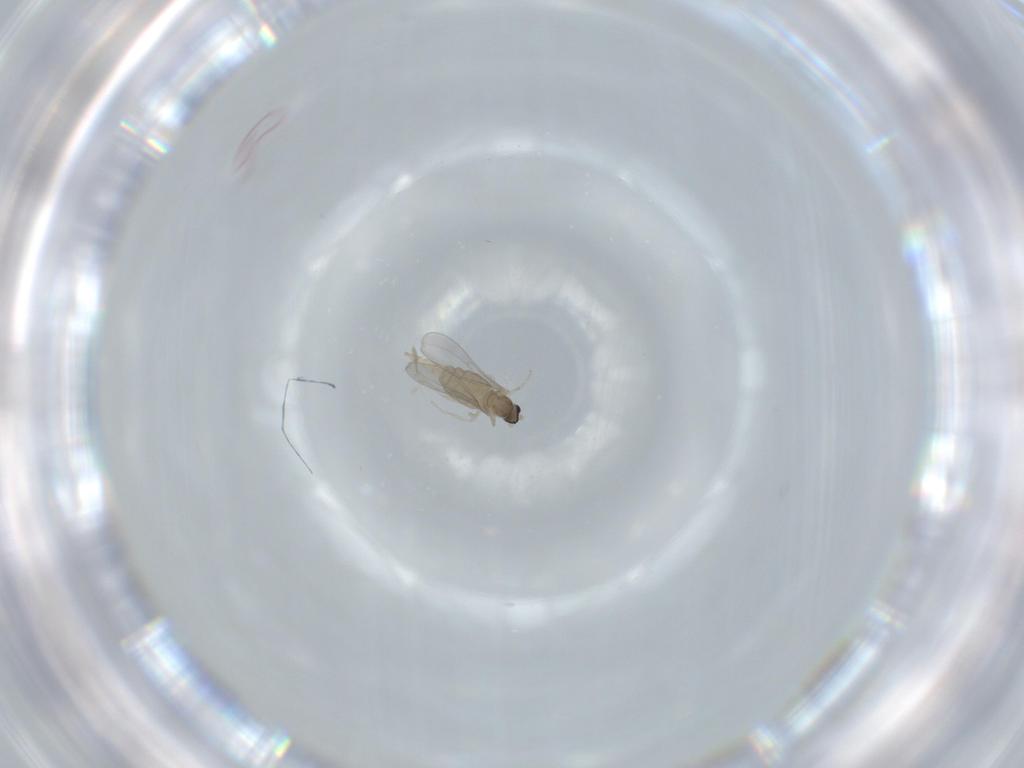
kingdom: Animalia
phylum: Arthropoda
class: Insecta
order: Diptera
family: Cecidomyiidae
